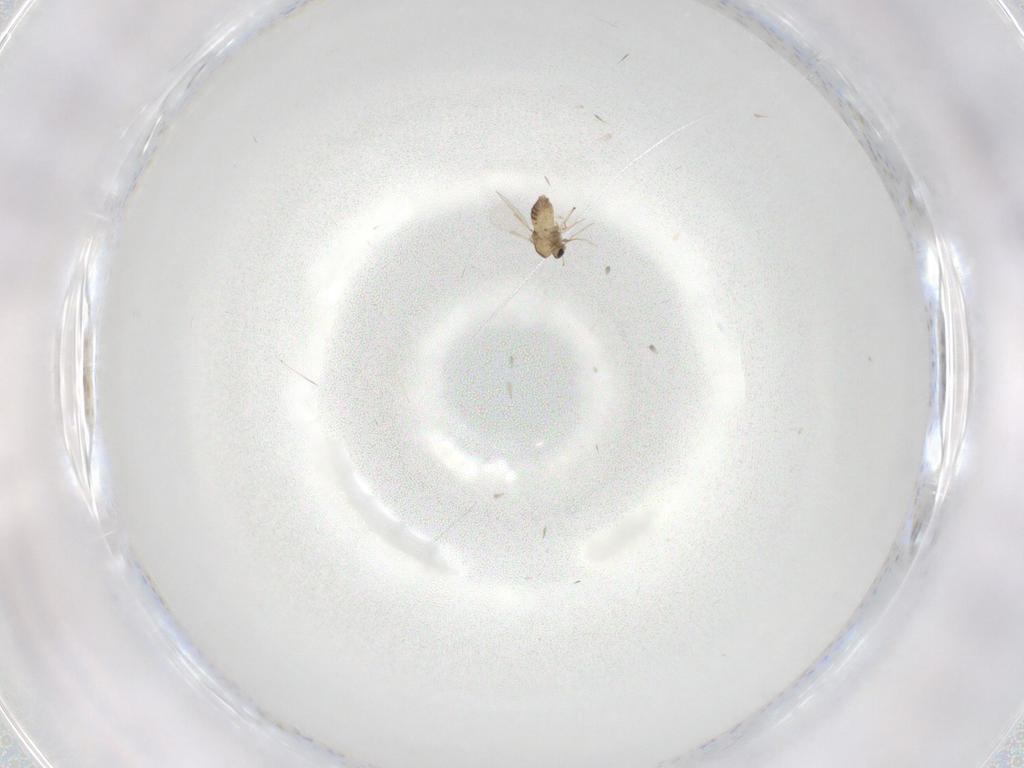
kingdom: Animalia
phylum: Arthropoda
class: Insecta
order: Diptera
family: Chironomidae
